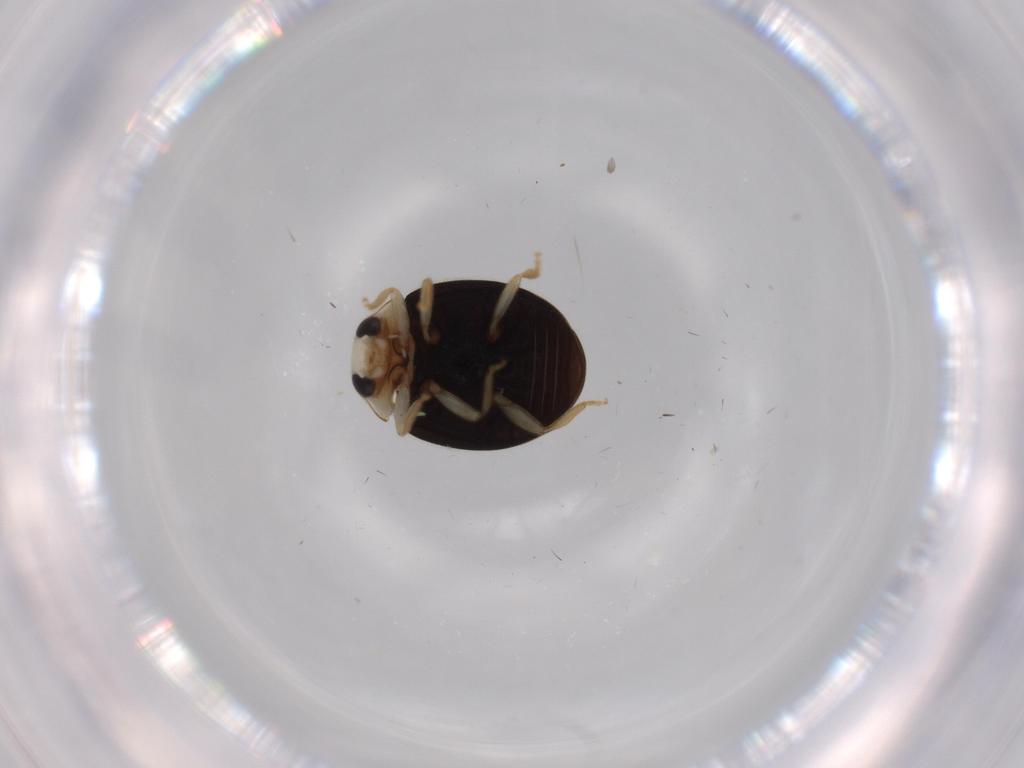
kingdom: Animalia
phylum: Arthropoda
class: Insecta
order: Coleoptera
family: Coccinellidae
